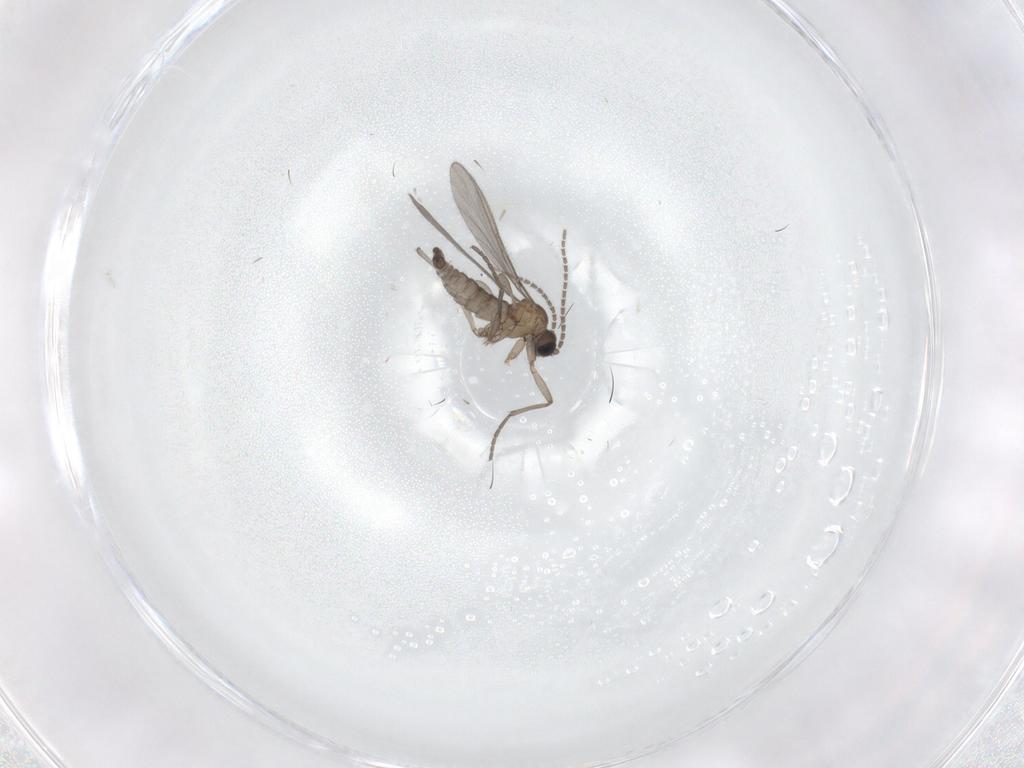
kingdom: Animalia
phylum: Arthropoda
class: Insecta
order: Diptera
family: Sciaridae
